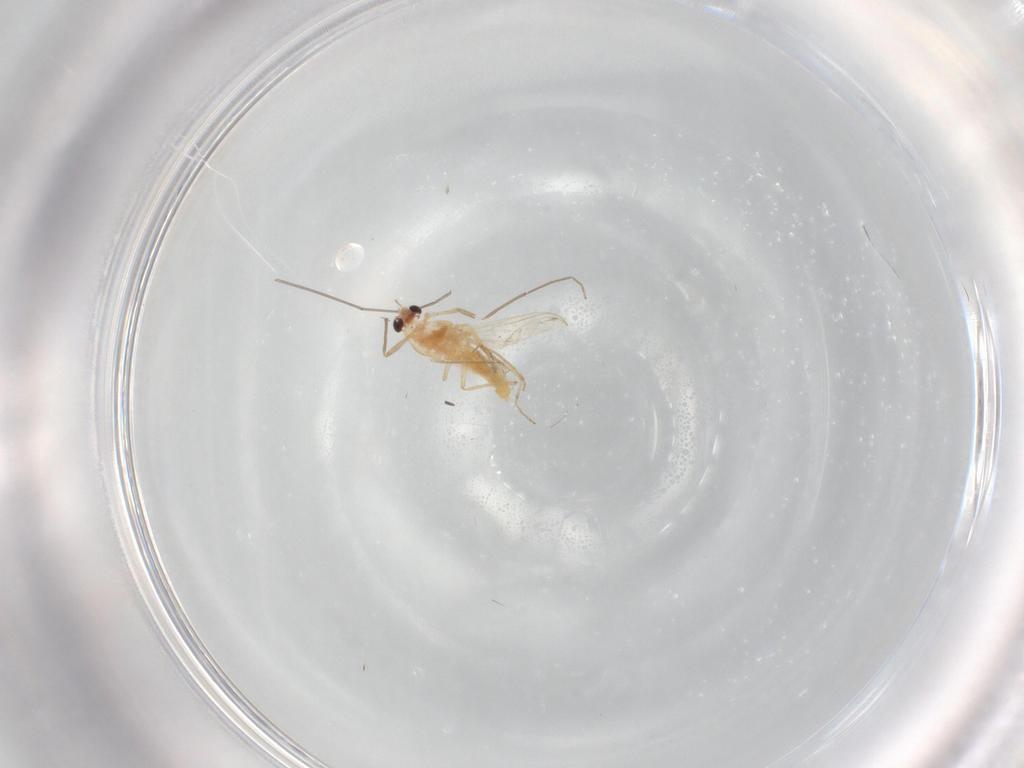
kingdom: Animalia
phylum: Arthropoda
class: Insecta
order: Diptera
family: Chironomidae
